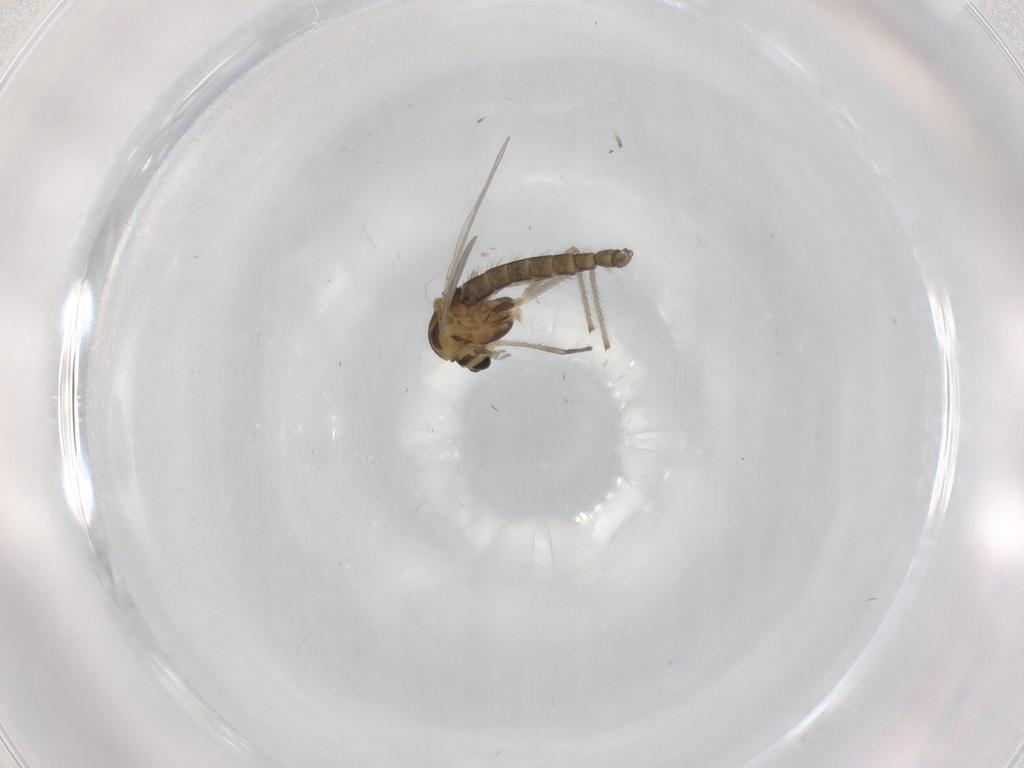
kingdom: Animalia
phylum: Arthropoda
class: Insecta
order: Diptera
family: Chironomidae
